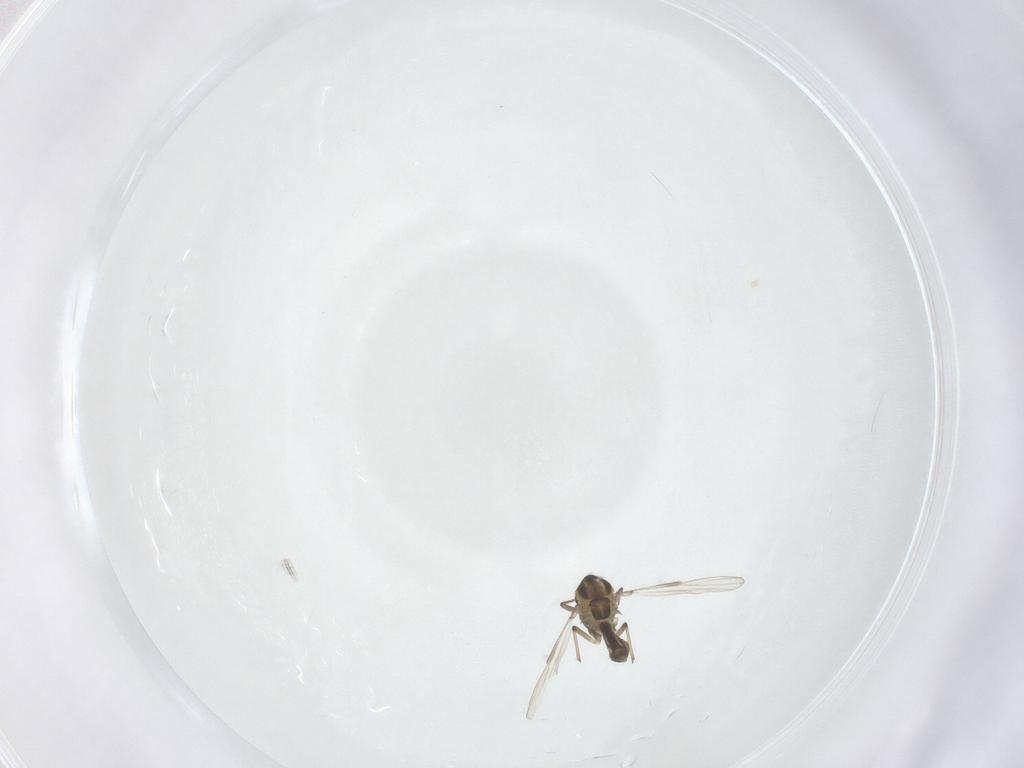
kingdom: Animalia
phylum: Arthropoda
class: Insecta
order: Diptera
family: Chironomidae
